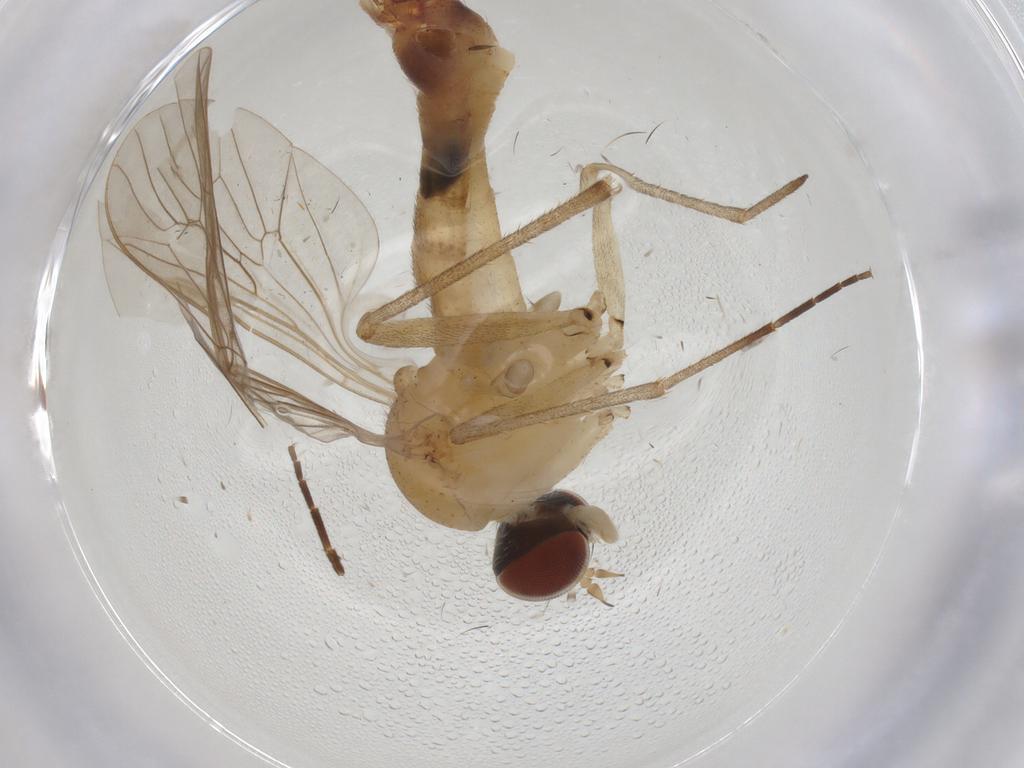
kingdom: Animalia
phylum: Arthropoda
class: Insecta
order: Diptera
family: Apsilocephalidae
